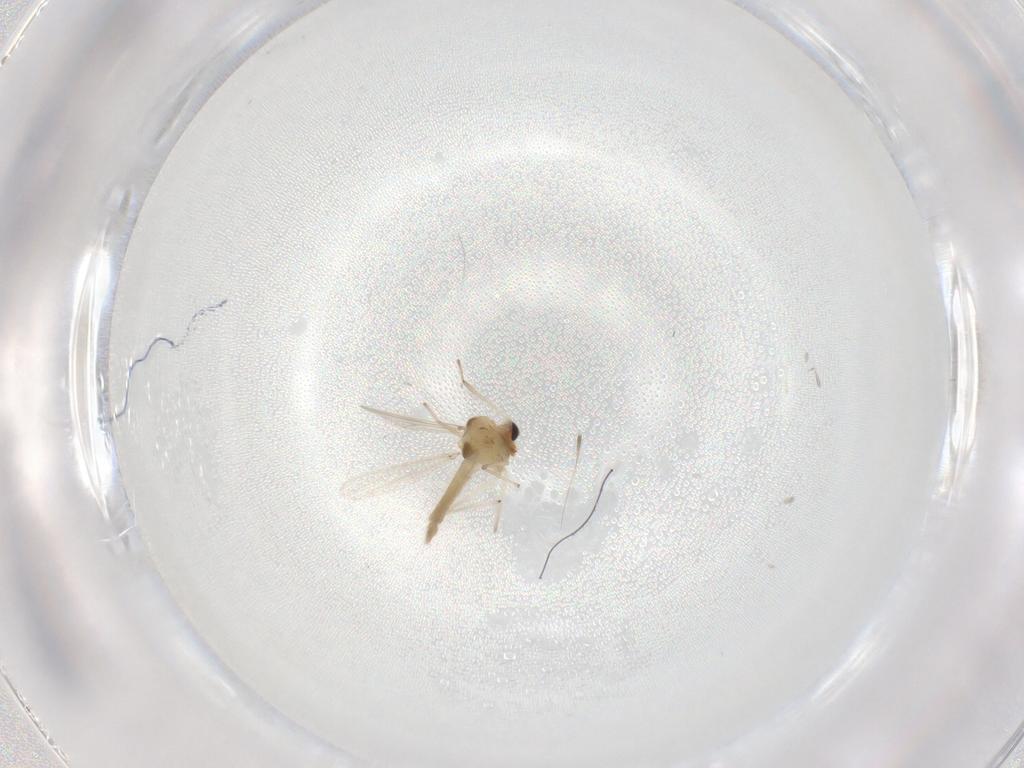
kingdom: Animalia
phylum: Arthropoda
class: Insecta
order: Diptera
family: Chironomidae
